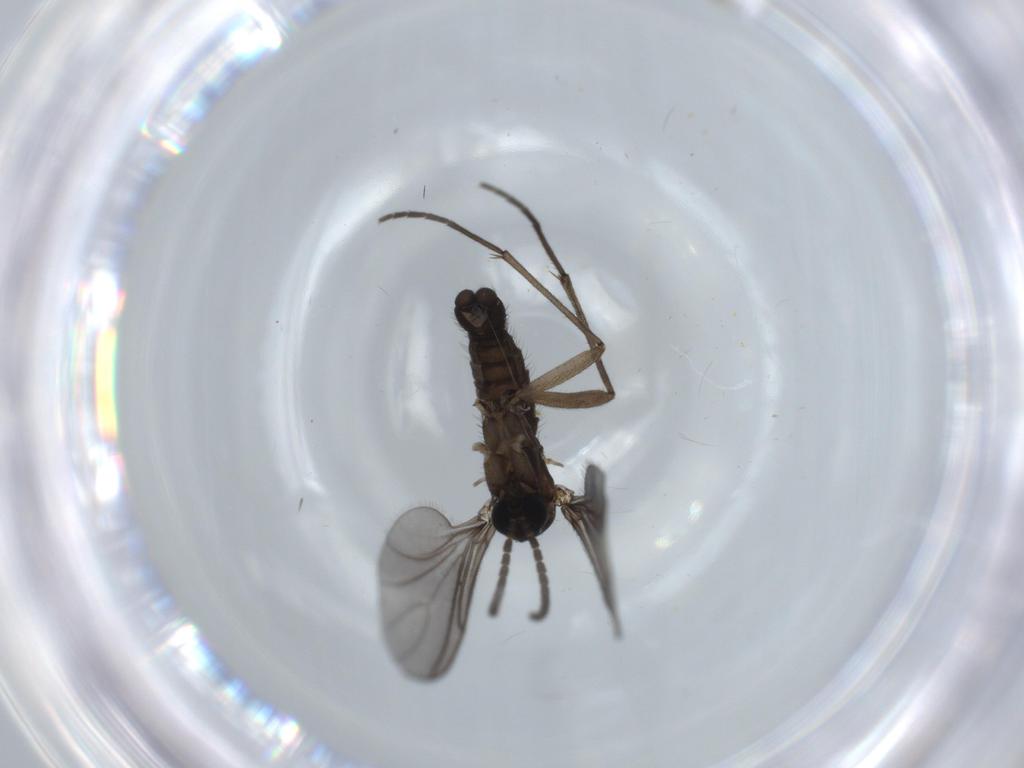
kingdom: Animalia
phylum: Arthropoda
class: Insecta
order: Diptera
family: Sciaridae
